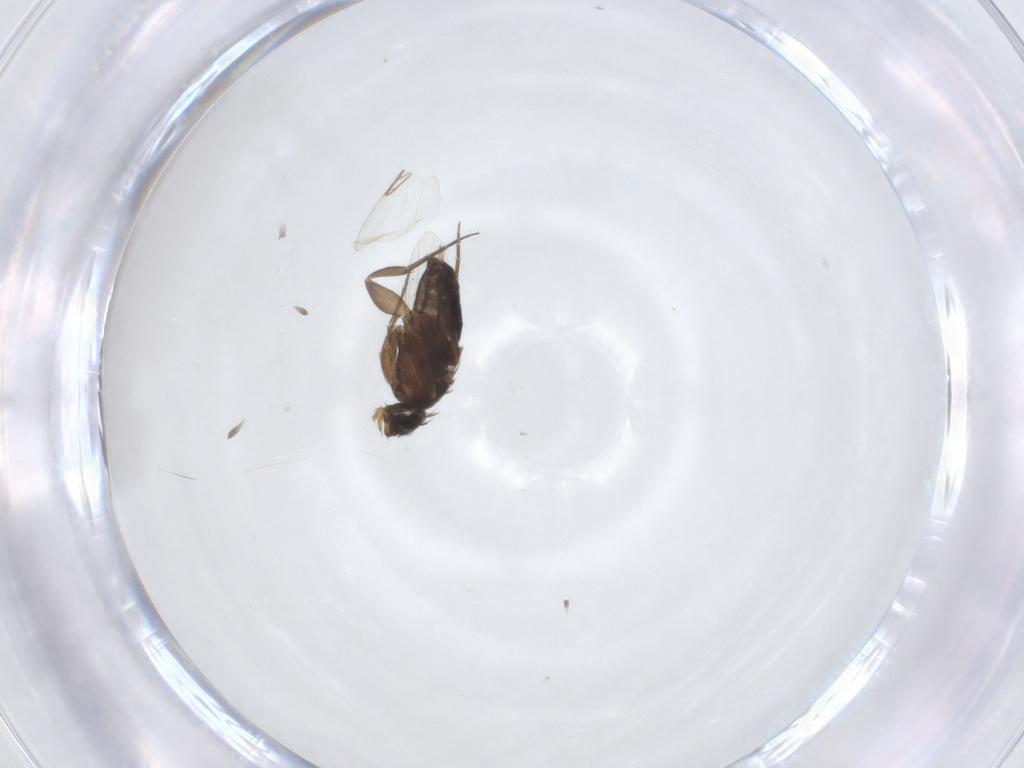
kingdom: Animalia
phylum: Arthropoda
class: Insecta
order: Diptera
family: Phoridae
